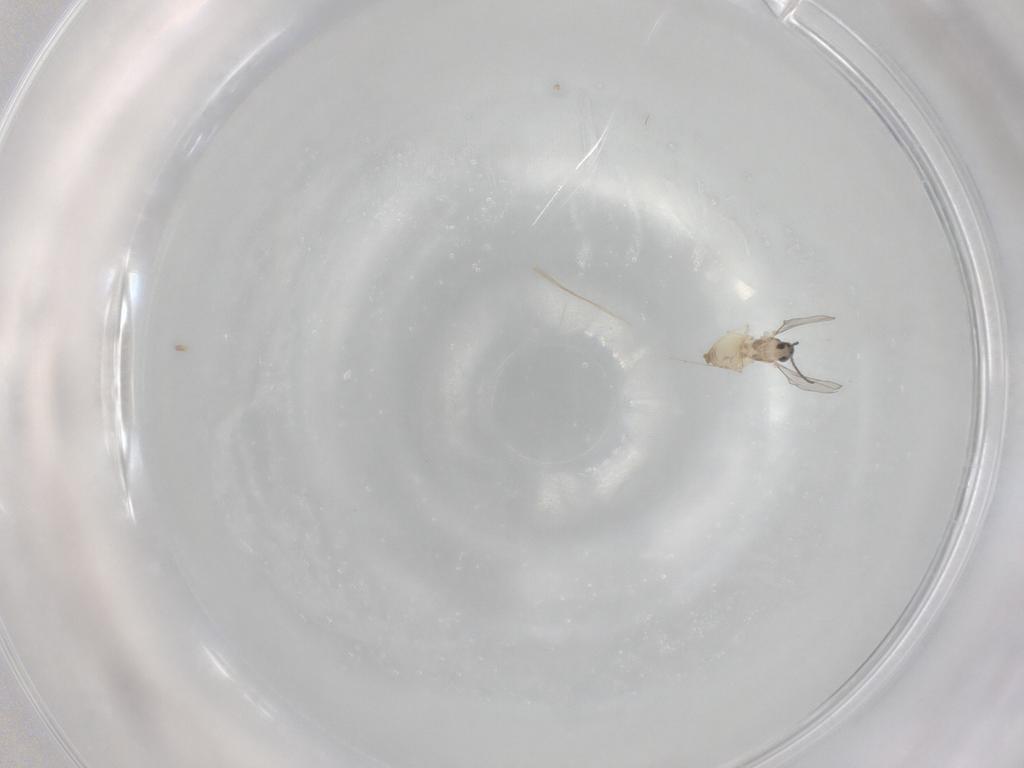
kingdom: Animalia
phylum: Arthropoda
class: Insecta
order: Diptera
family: Cecidomyiidae
